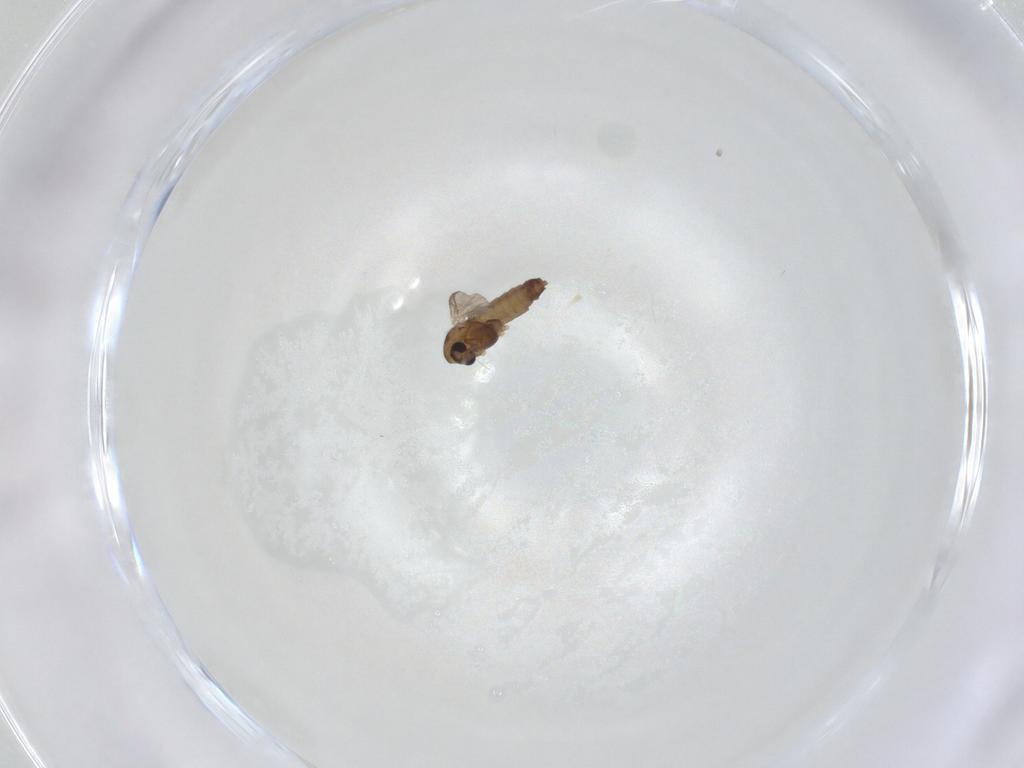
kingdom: Animalia
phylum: Arthropoda
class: Insecta
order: Diptera
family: Chironomidae
